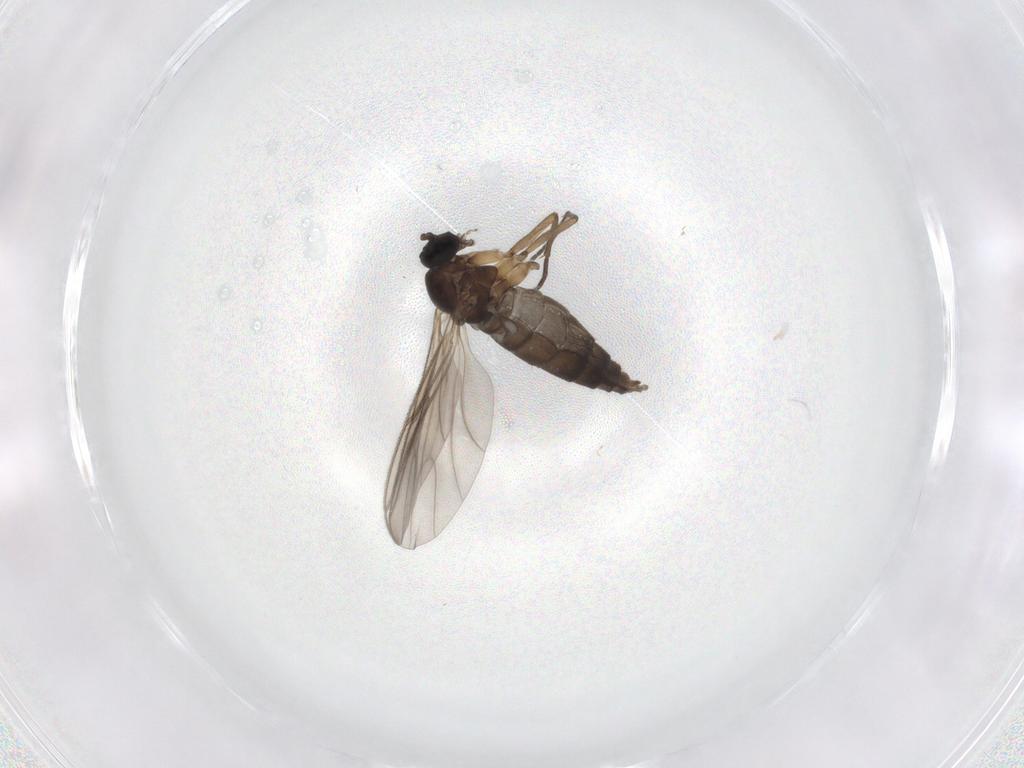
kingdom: Animalia
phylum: Arthropoda
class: Insecta
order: Diptera
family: Sciaridae
